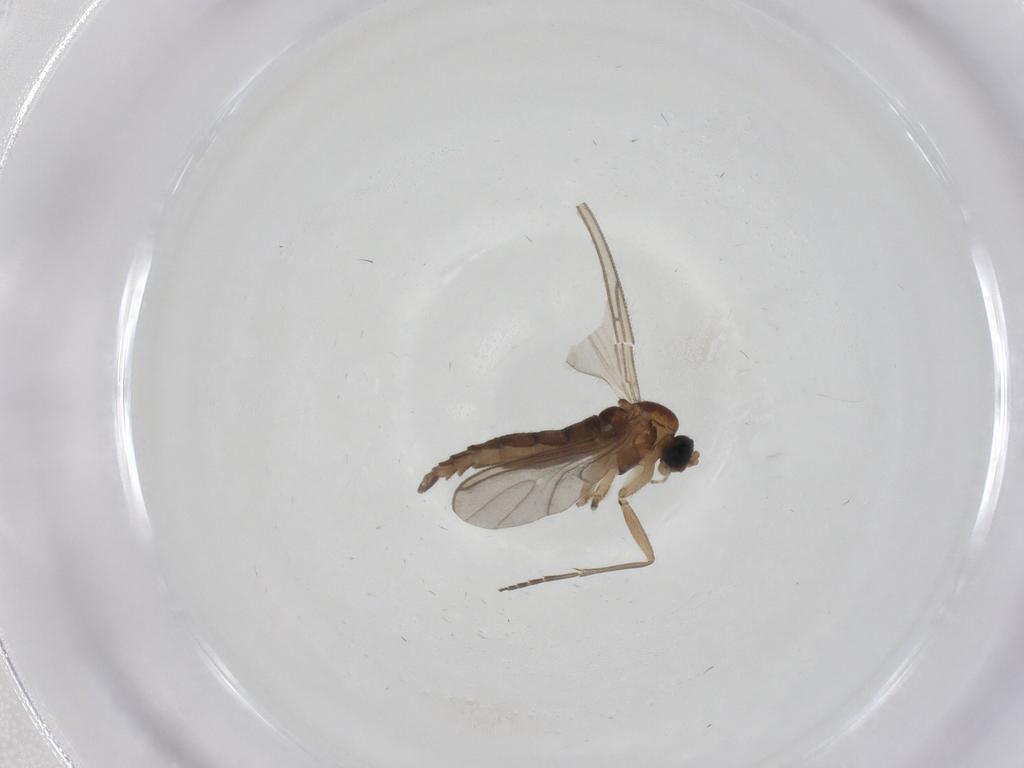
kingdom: Animalia
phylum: Arthropoda
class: Insecta
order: Diptera
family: Sciaridae
